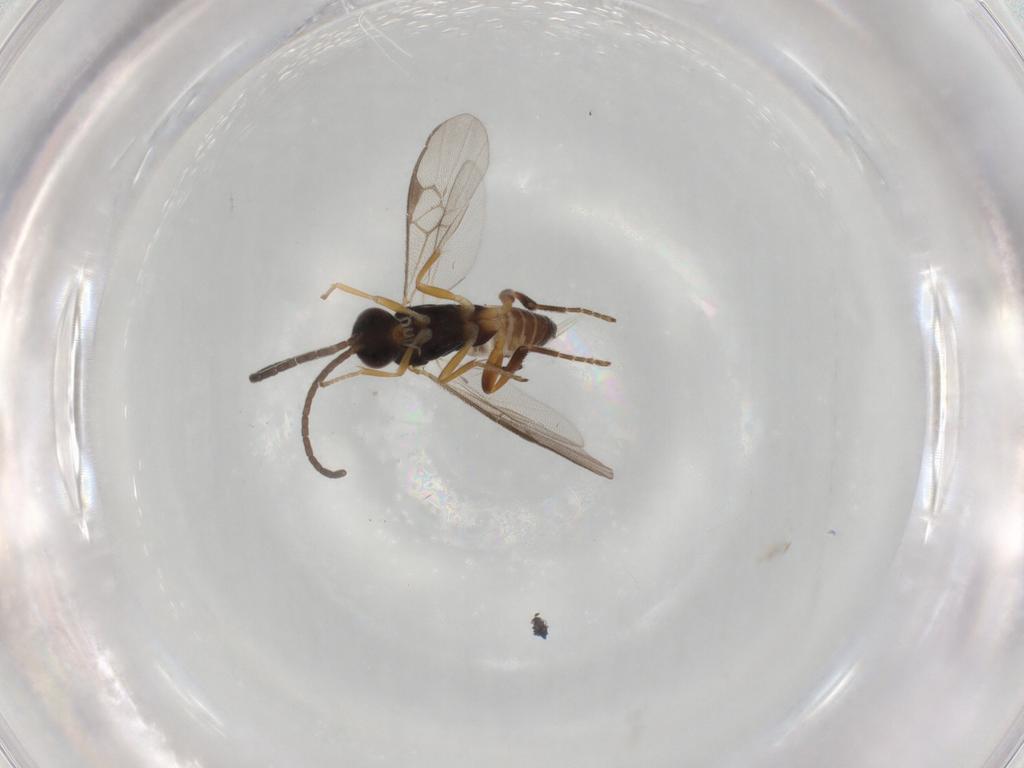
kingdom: Animalia
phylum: Arthropoda
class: Insecta
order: Hymenoptera
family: Braconidae
